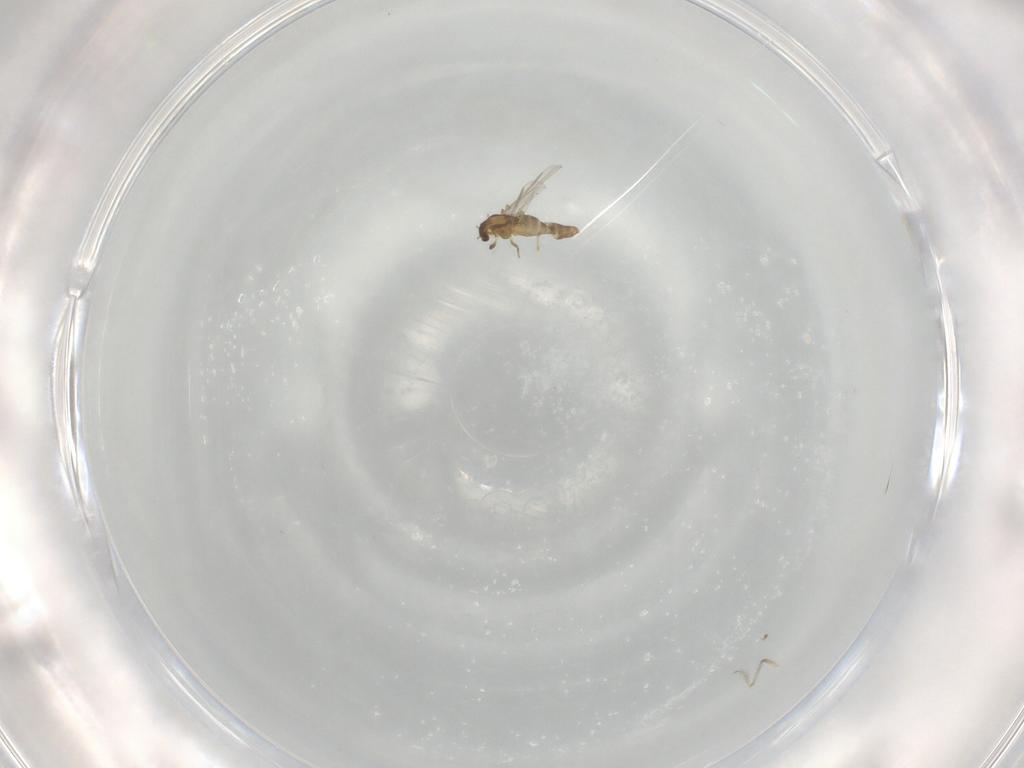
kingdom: Animalia
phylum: Arthropoda
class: Insecta
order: Diptera
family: Chironomidae
